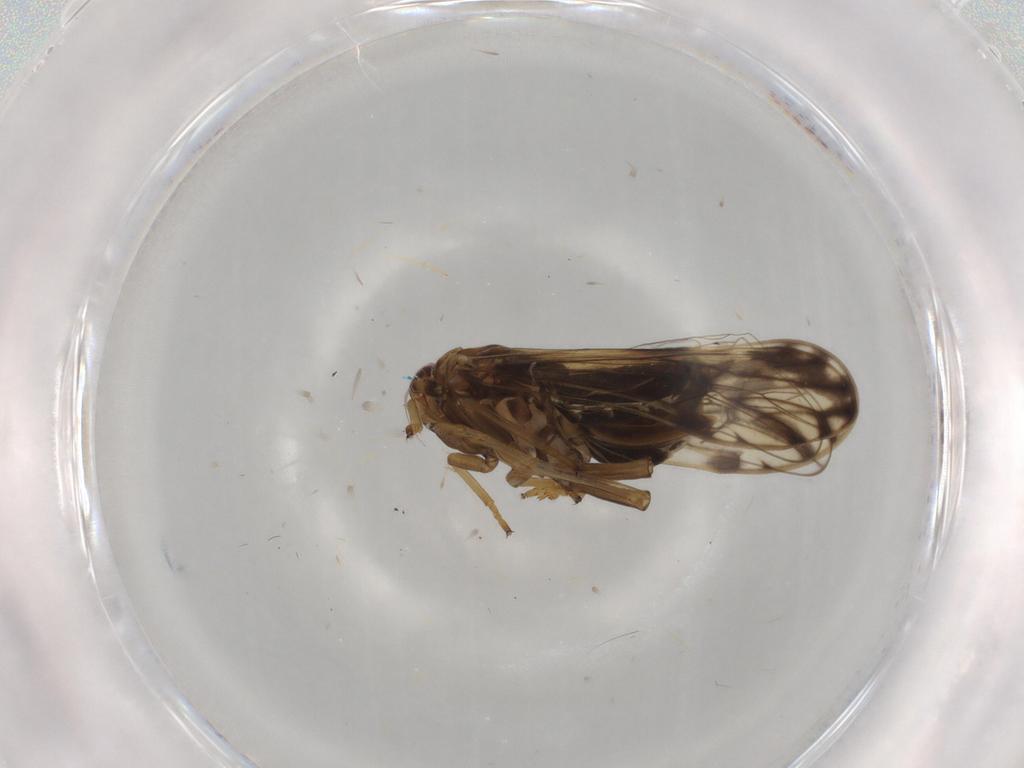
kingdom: Animalia
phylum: Arthropoda
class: Insecta
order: Hemiptera
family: Delphacidae
